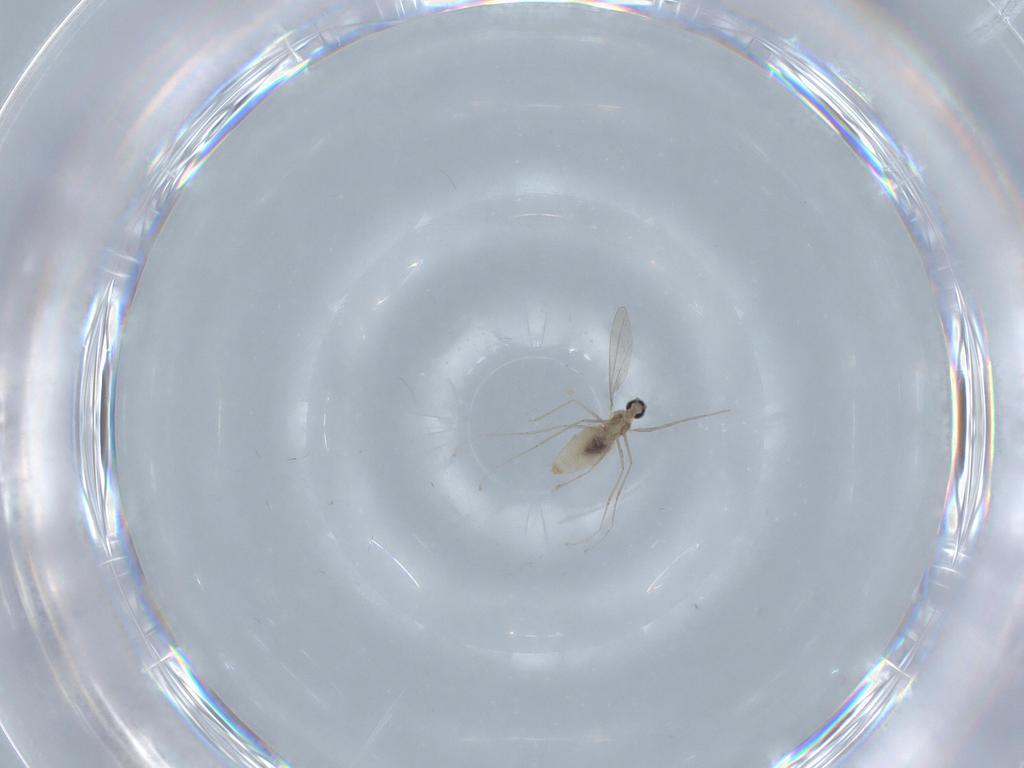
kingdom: Animalia
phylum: Arthropoda
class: Insecta
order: Diptera
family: Cecidomyiidae
